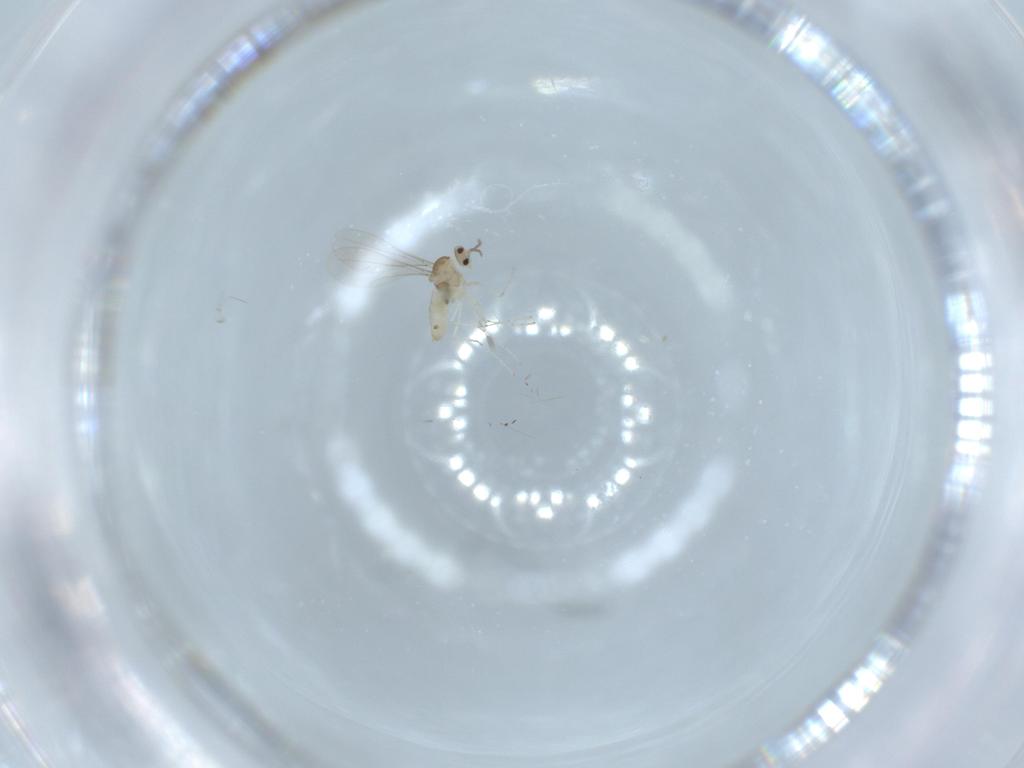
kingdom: Animalia
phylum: Arthropoda
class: Insecta
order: Diptera
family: Cecidomyiidae
